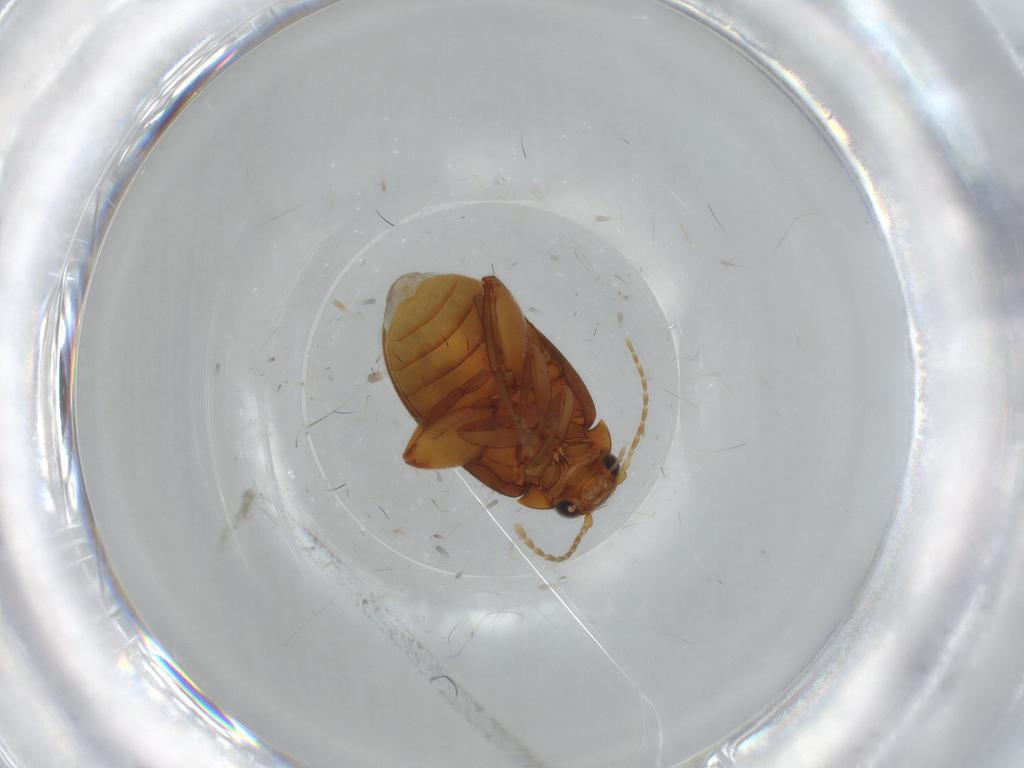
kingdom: Animalia
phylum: Arthropoda
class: Insecta
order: Coleoptera
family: Scirtidae
